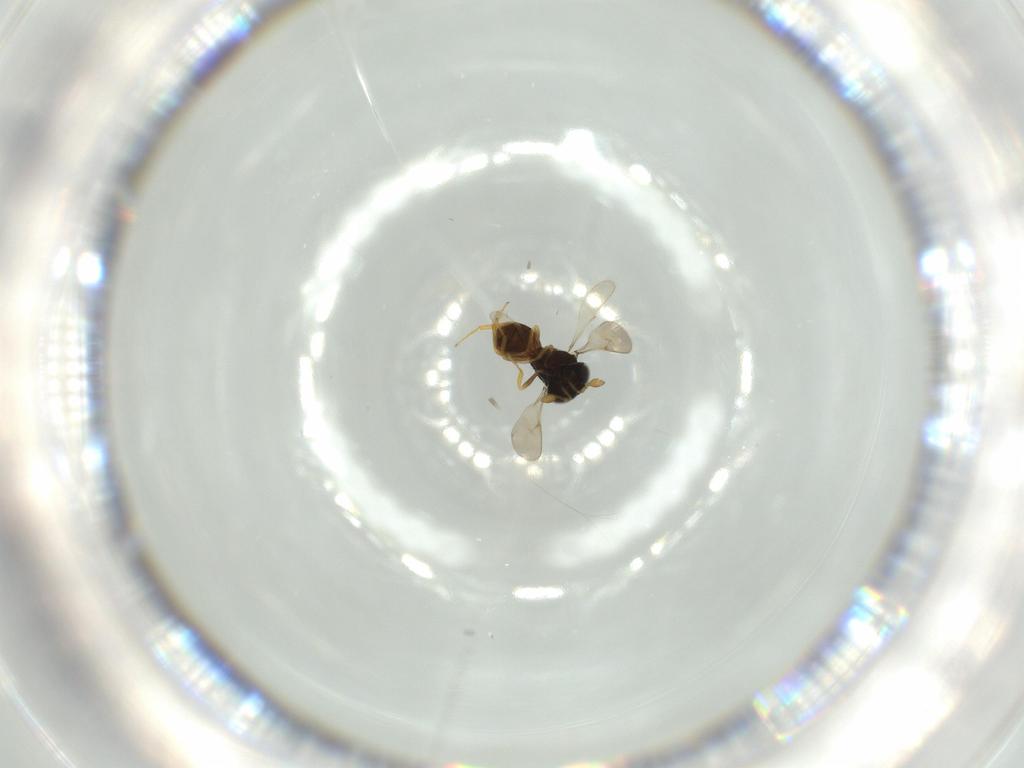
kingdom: Animalia
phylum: Arthropoda
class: Insecta
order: Hymenoptera
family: Scelionidae
